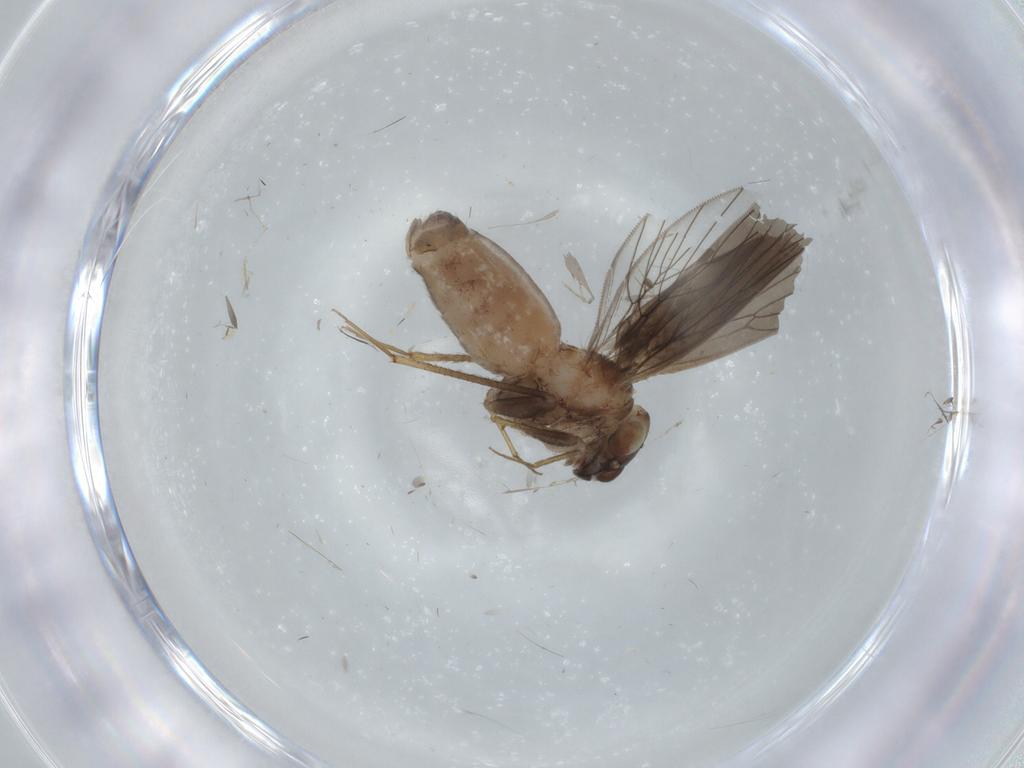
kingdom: Animalia
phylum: Arthropoda
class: Insecta
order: Psocodea
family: Lepidopsocidae
